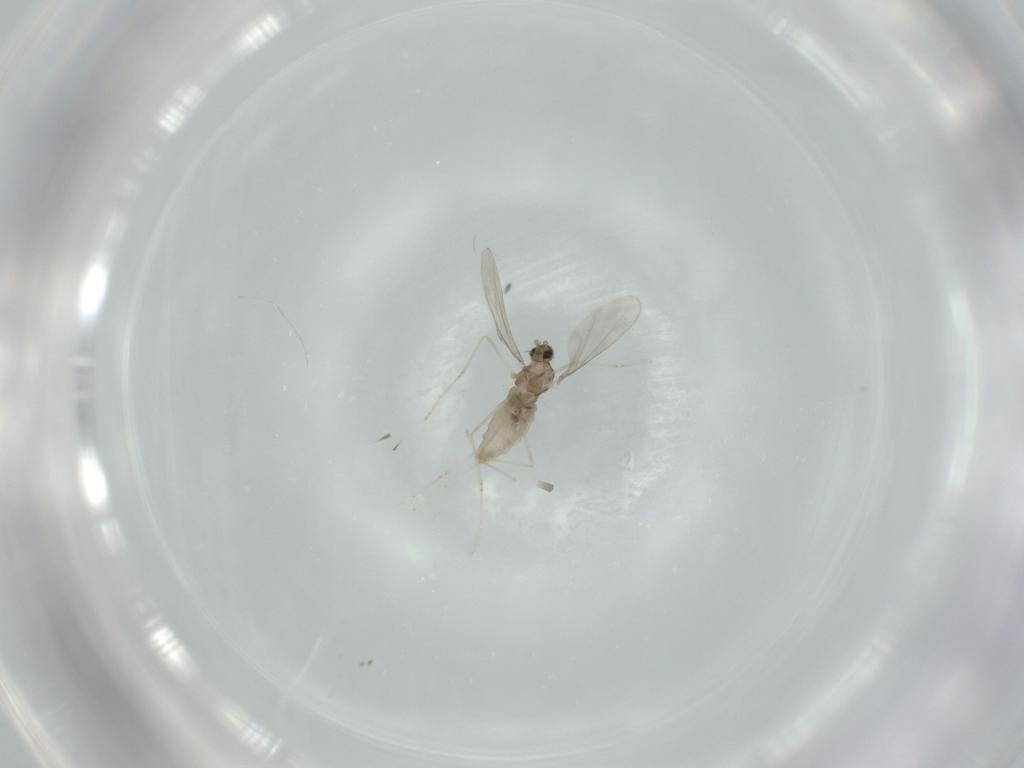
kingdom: Animalia
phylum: Arthropoda
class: Insecta
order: Diptera
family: Cecidomyiidae
